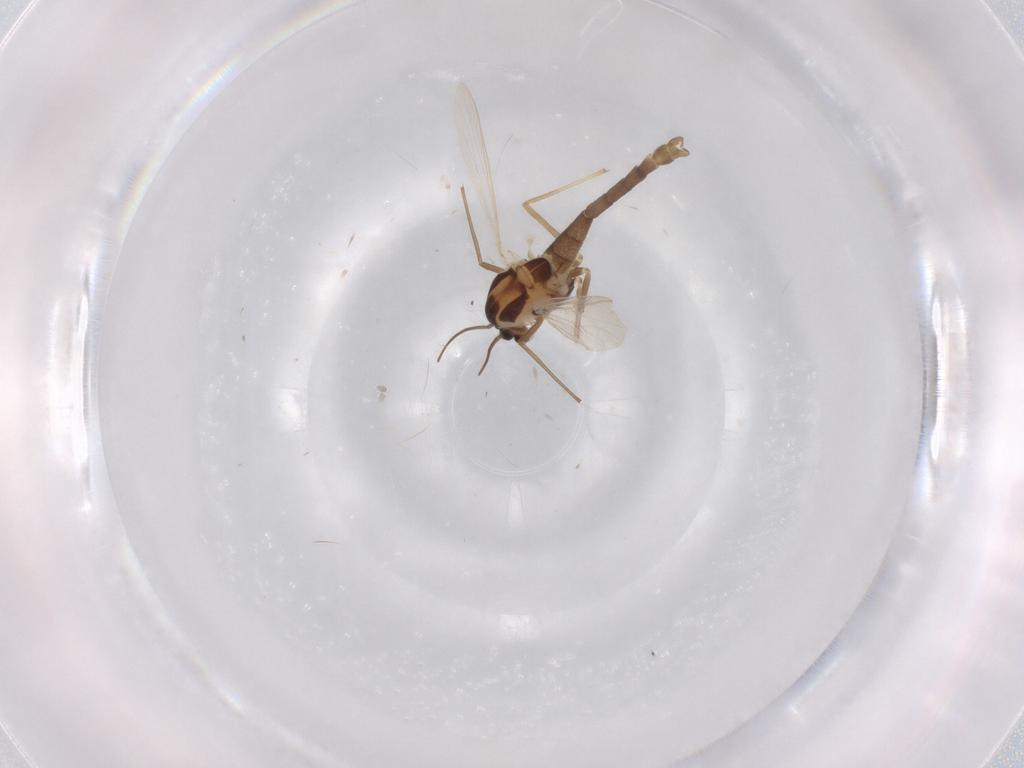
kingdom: Animalia
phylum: Arthropoda
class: Insecta
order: Diptera
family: Chironomidae
